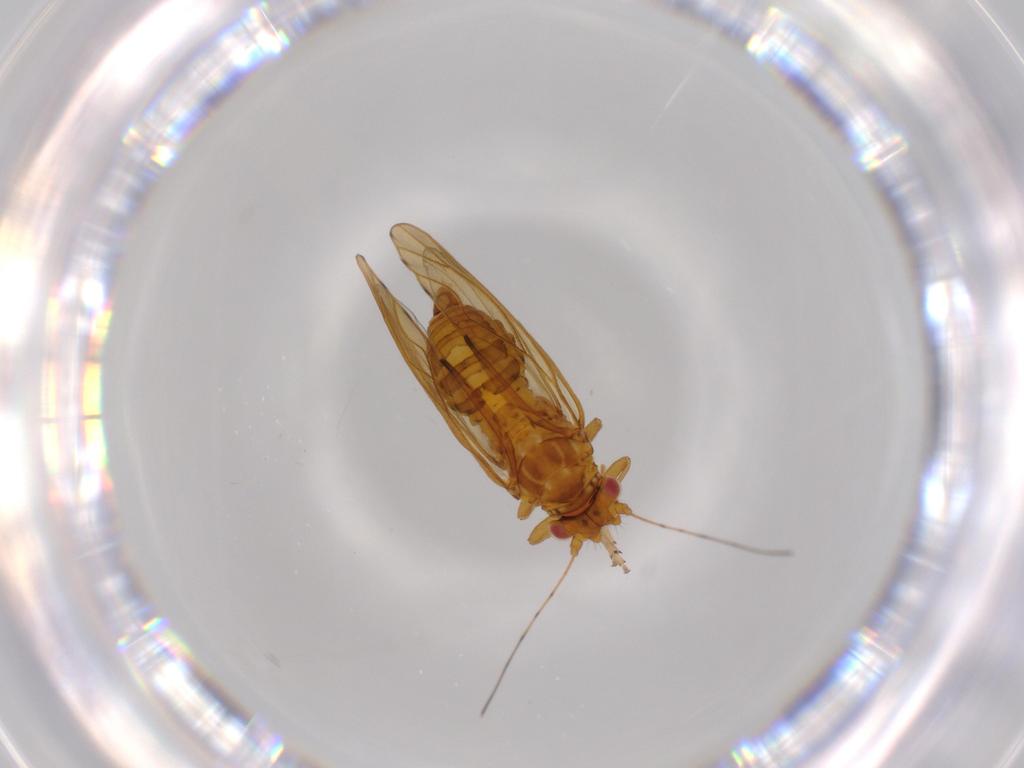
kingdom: Animalia
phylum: Arthropoda
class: Insecta
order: Hemiptera
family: Psylloidea_incertae_sedis
